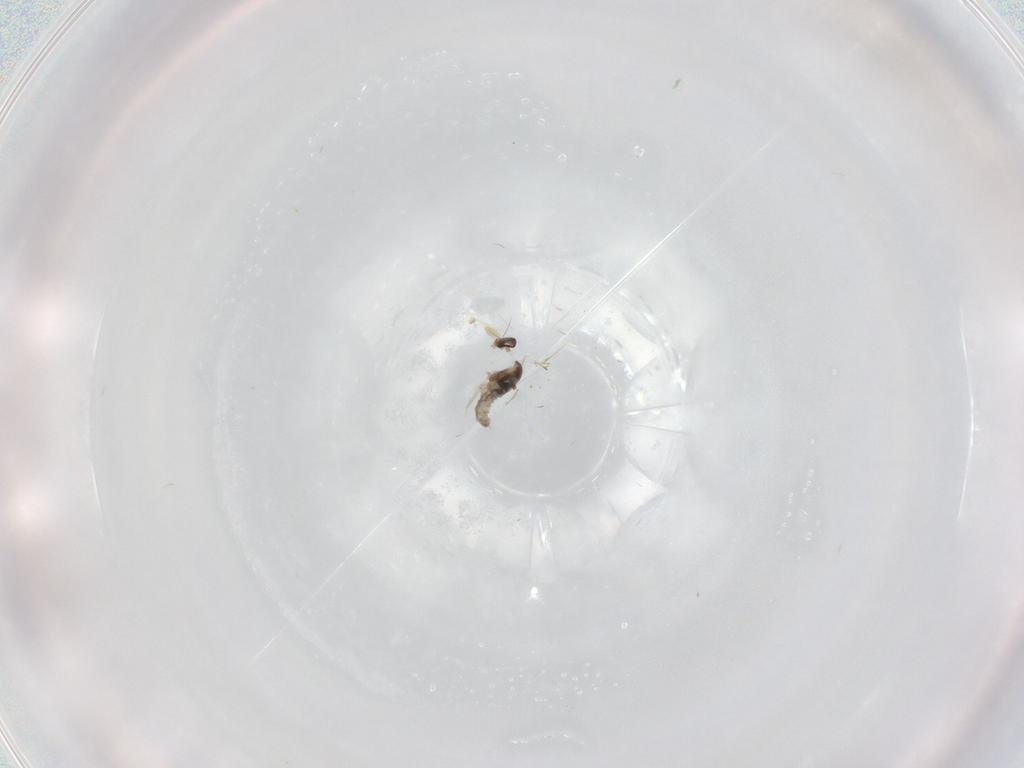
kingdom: Animalia
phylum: Arthropoda
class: Insecta
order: Diptera
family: Cecidomyiidae
